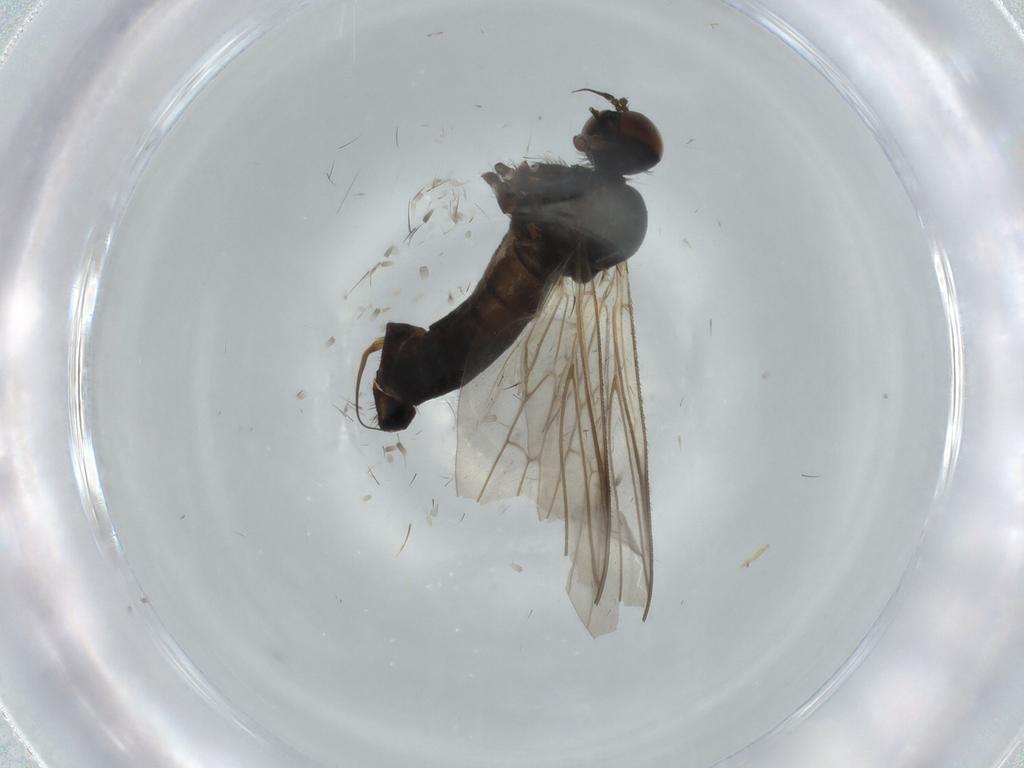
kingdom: Animalia
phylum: Arthropoda
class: Insecta
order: Diptera
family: Empididae
